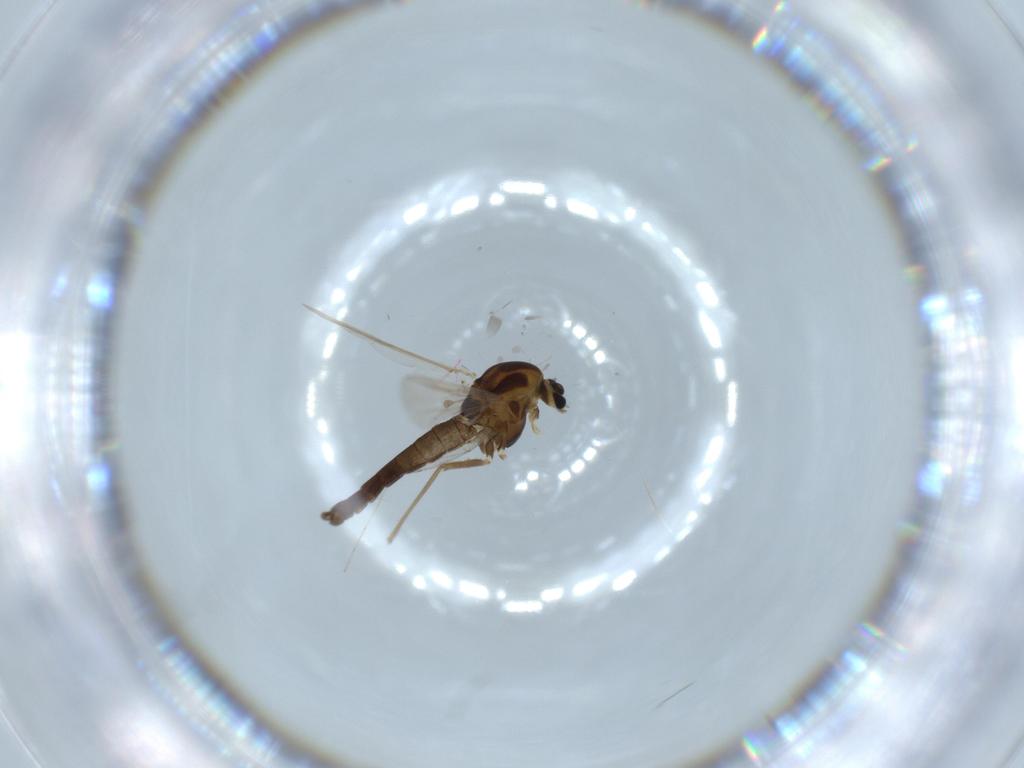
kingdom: Animalia
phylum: Arthropoda
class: Insecta
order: Diptera
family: Chironomidae
